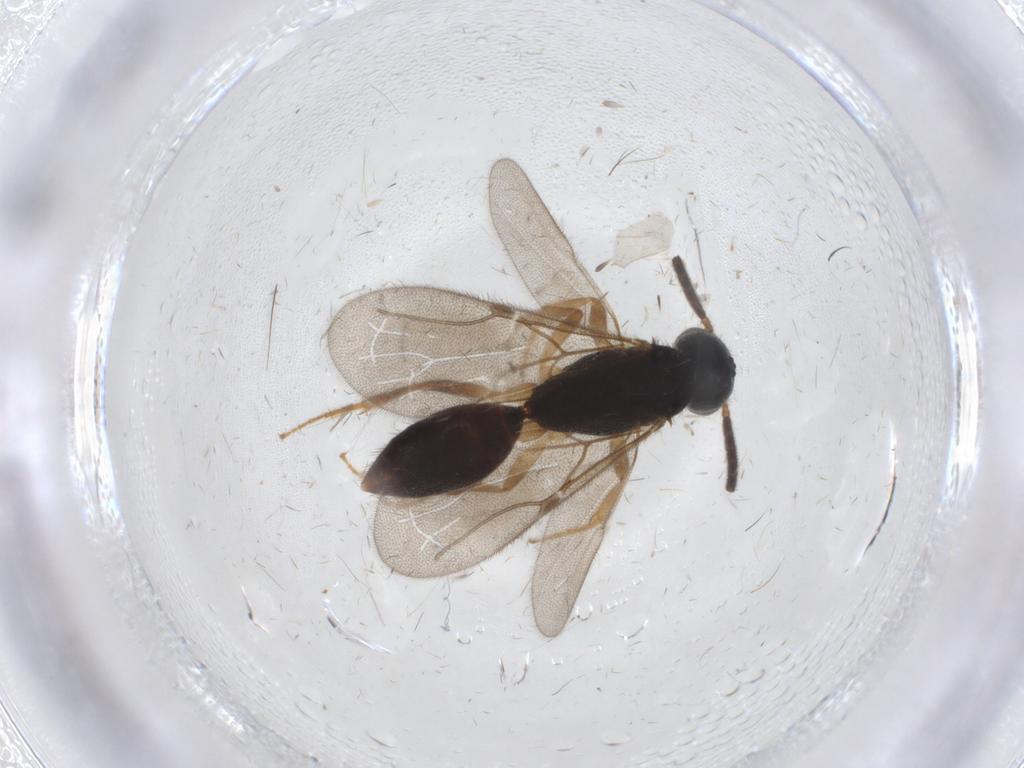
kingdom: Animalia
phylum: Arthropoda
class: Insecta
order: Hymenoptera
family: Bethylidae
